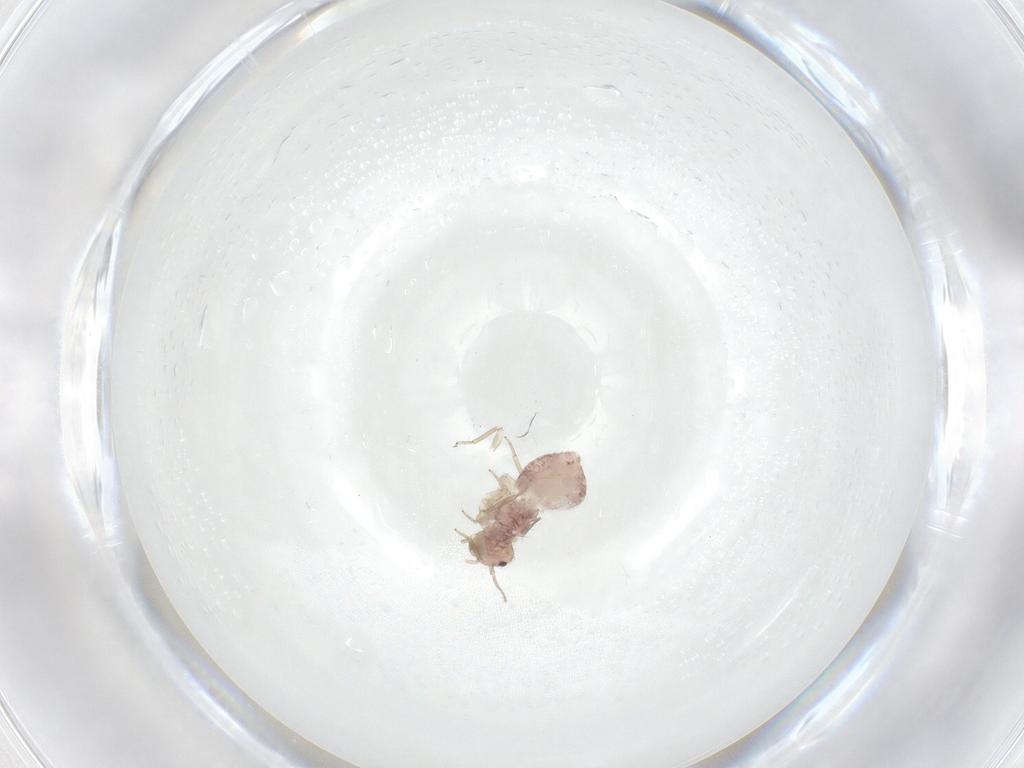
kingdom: Animalia
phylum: Arthropoda
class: Insecta
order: Psocodea
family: Ectopsocidae
